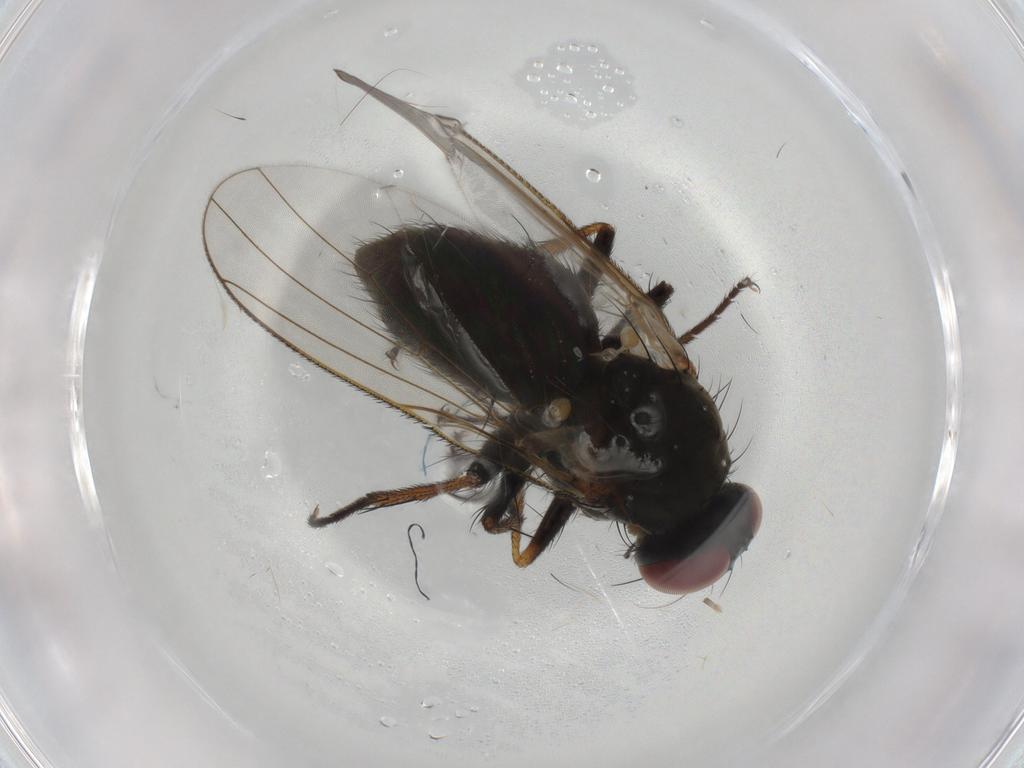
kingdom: Animalia
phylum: Arthropoda
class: Insecta
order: Diptera
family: Muscidae
